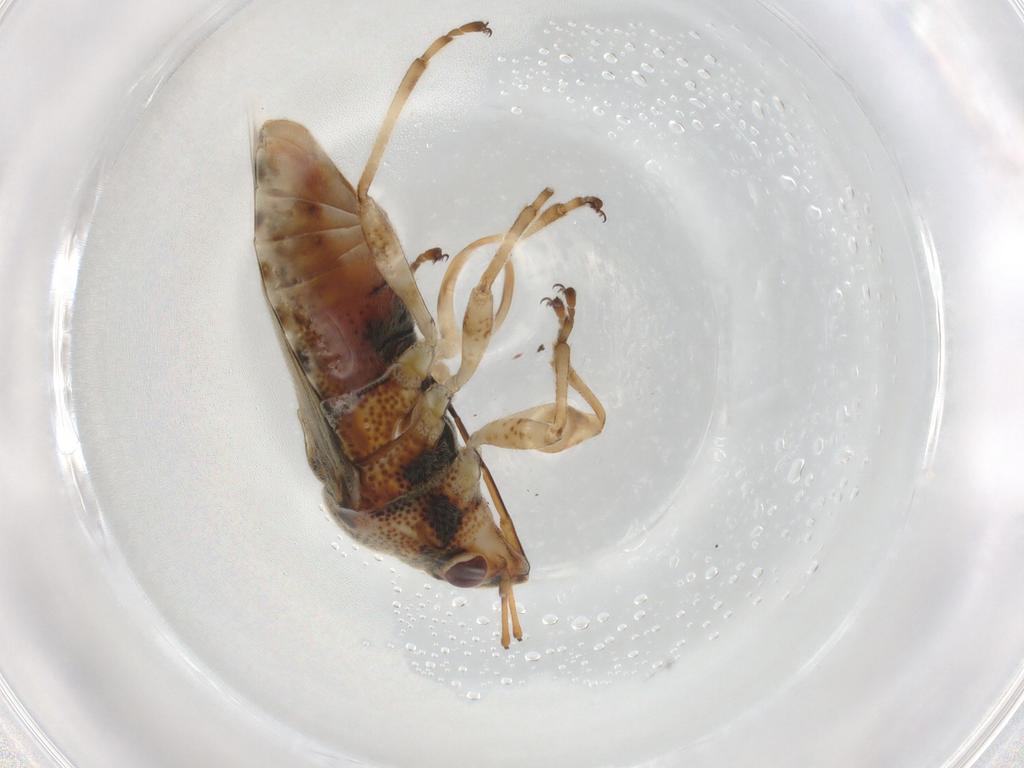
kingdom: Animalia
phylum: Arthropoda
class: Insecta
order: Hemiptera
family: Lygaeidae
